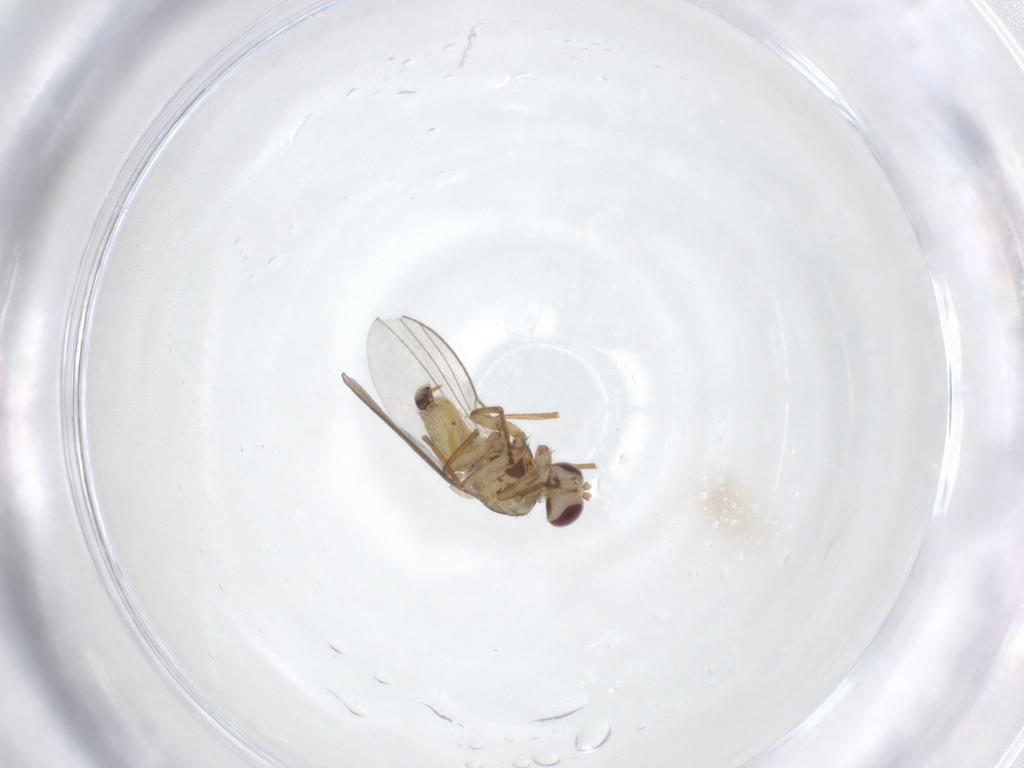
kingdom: Animalia
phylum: Arthropoda
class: Insecta
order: Diptera
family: Agromyzidae
